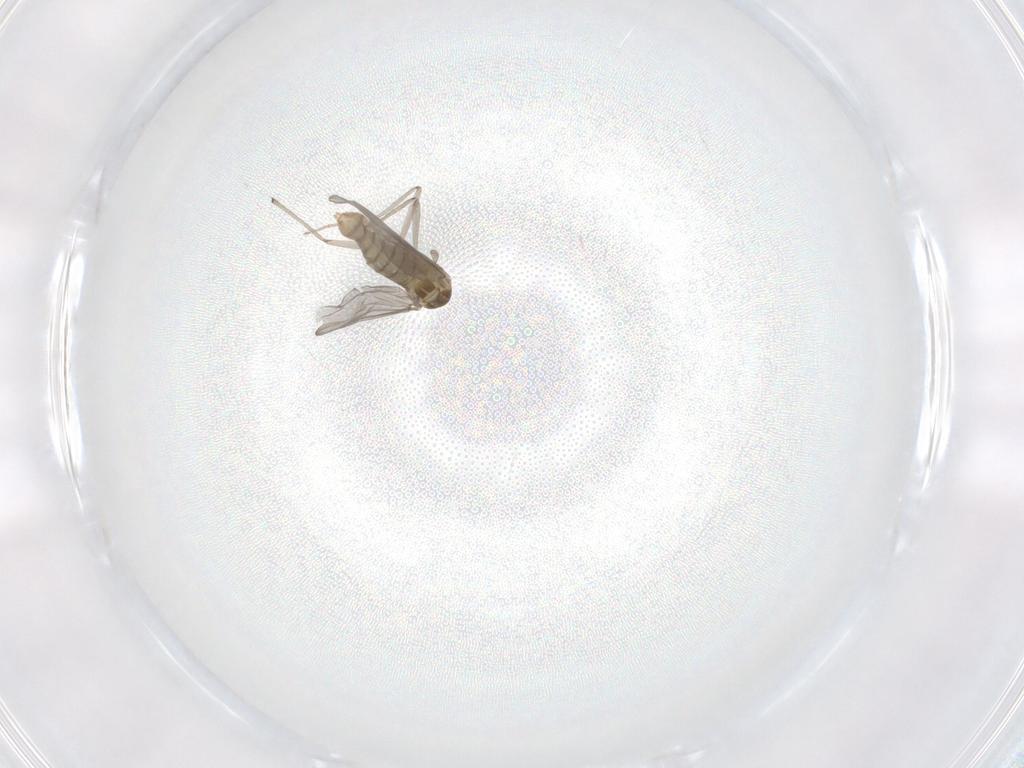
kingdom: Animalia
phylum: Arthropoda
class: Insecta
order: Diptera
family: Chironomidae
